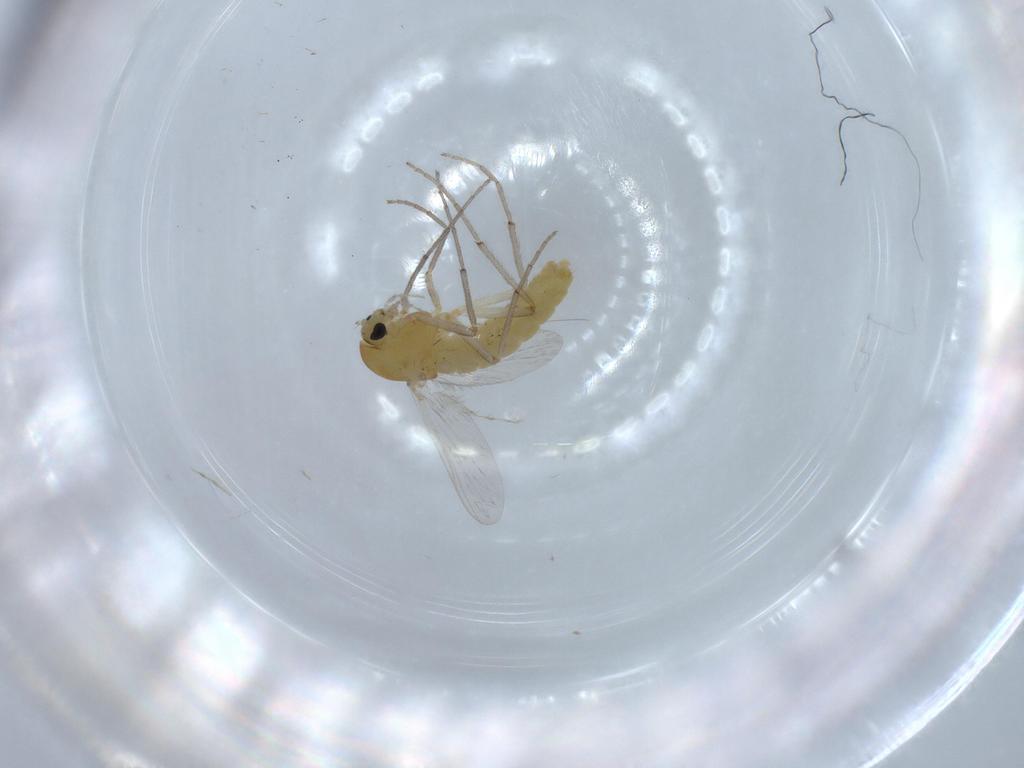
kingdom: Animalia
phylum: Arthropoda
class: Insecta
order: Diptera
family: Chironomidae
